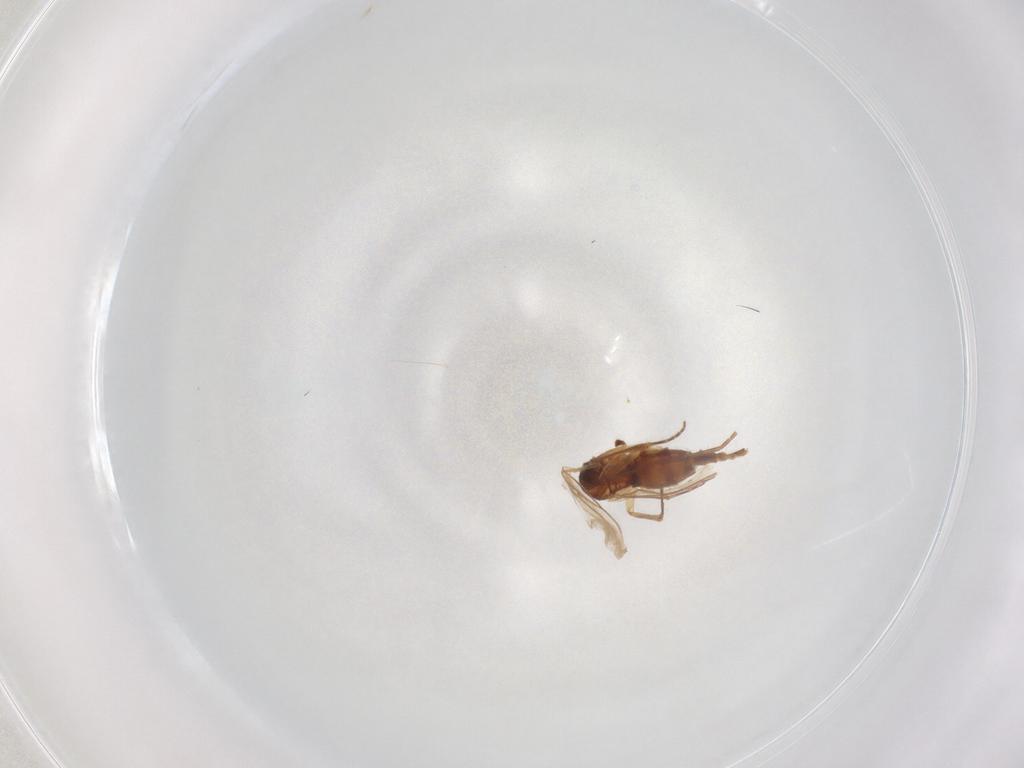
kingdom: Animalia
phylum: Arthropoda
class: Insecta
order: Diptera
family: Sciaridae
